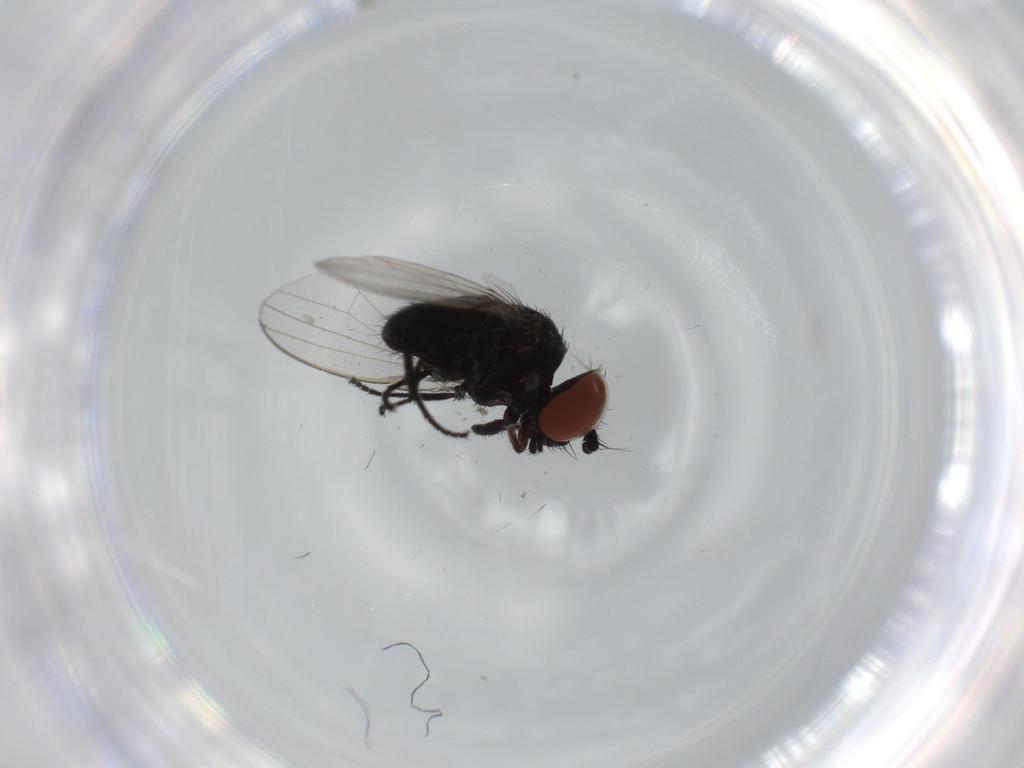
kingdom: Animalia
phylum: Arthropoda
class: Insecta
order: Diptera
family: Milichiidae
